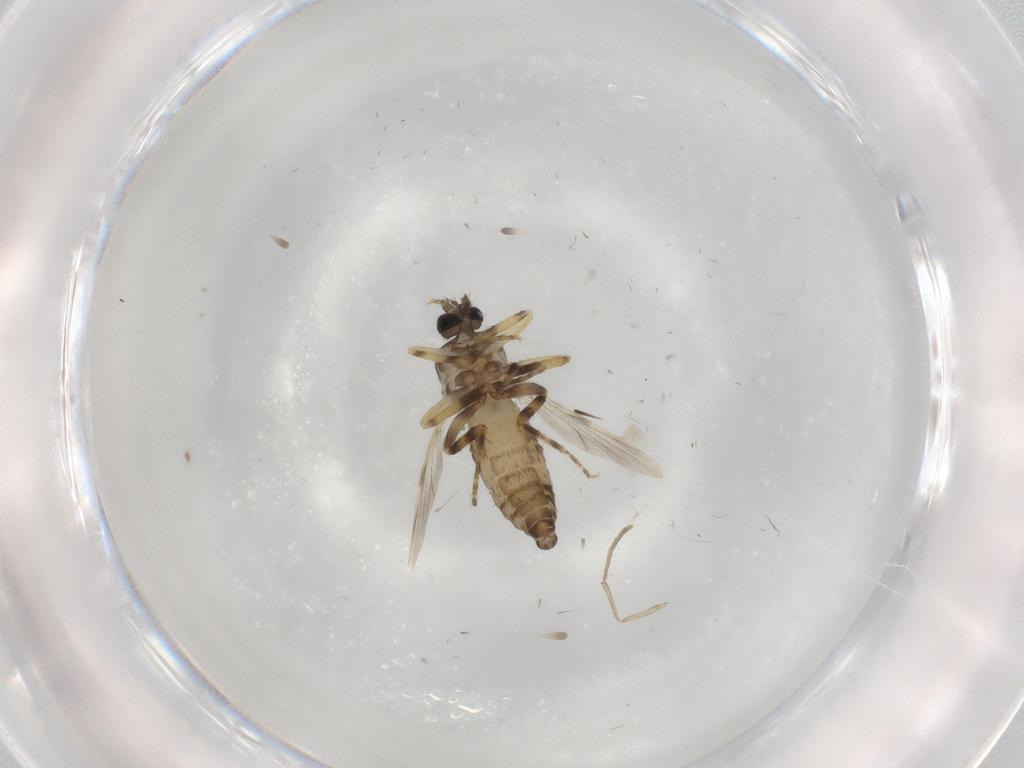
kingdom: Animalia
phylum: Arthropoda
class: Insecta
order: Diptera
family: Ceratopogonidae
